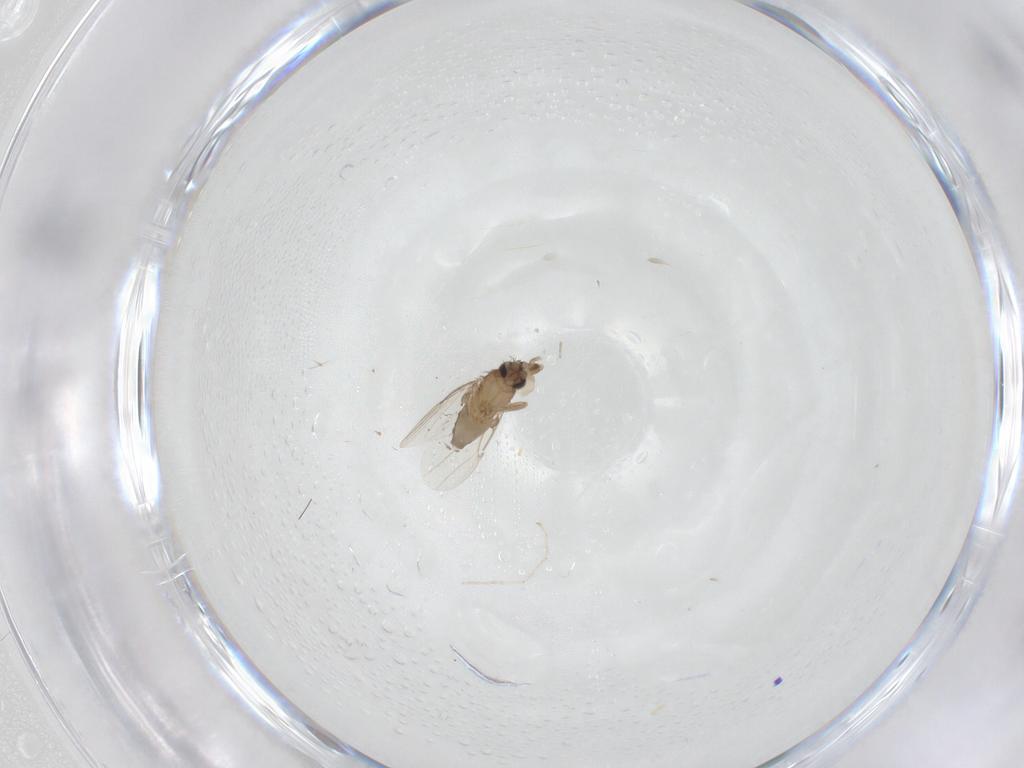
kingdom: Animalia
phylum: Arthropoda
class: Insecta
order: Diptera
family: Phoridae
